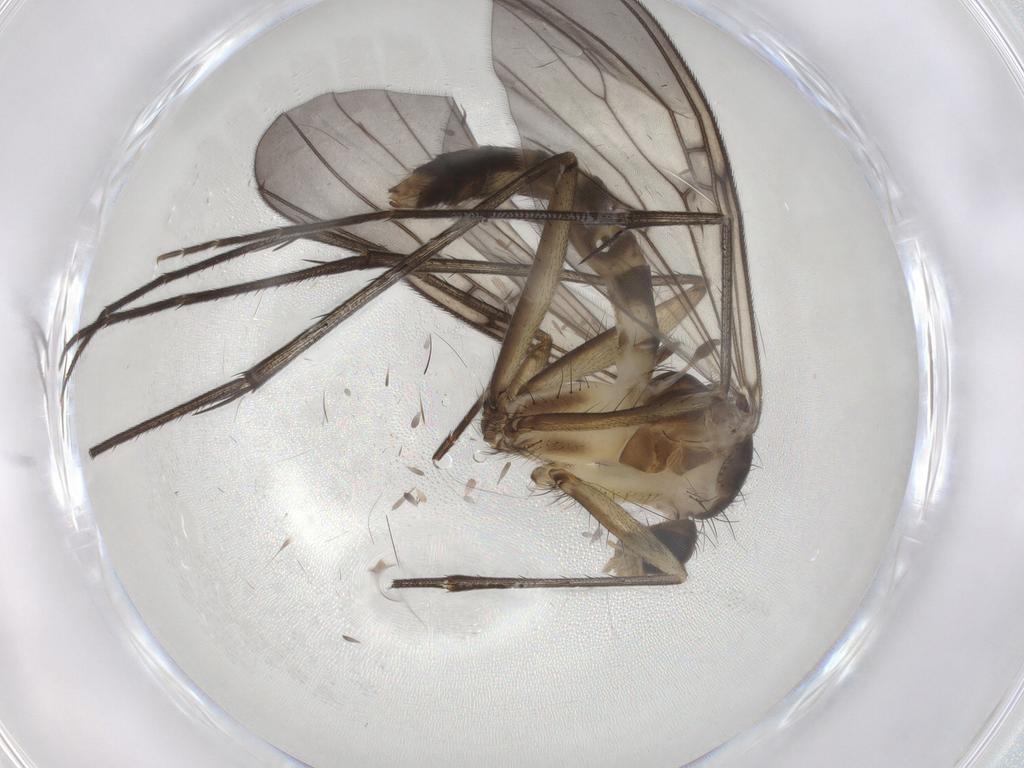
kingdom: Animalia
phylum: Arthropoda
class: Insecta
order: Diptera
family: Mycetophilidae
